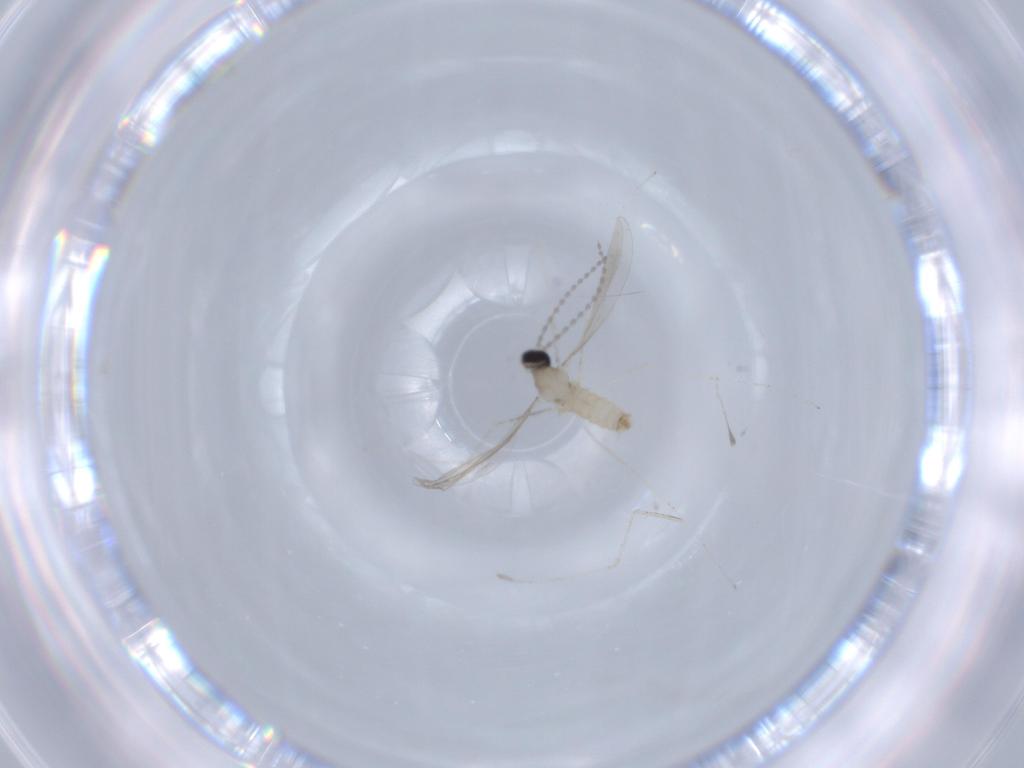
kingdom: Animalia
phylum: Arthropoda
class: Insecta
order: Diptera
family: Cecidomyiidae
